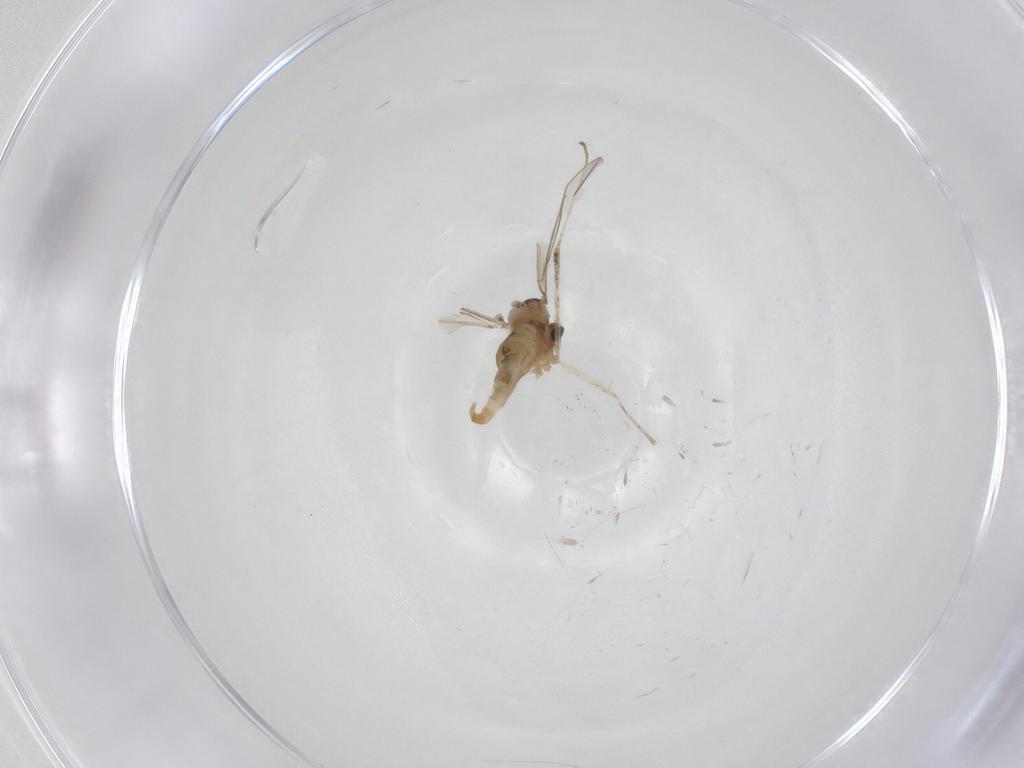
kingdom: Animalia
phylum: Arthropoda
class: Insecta
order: Diptera
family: Cecidomyiidae
